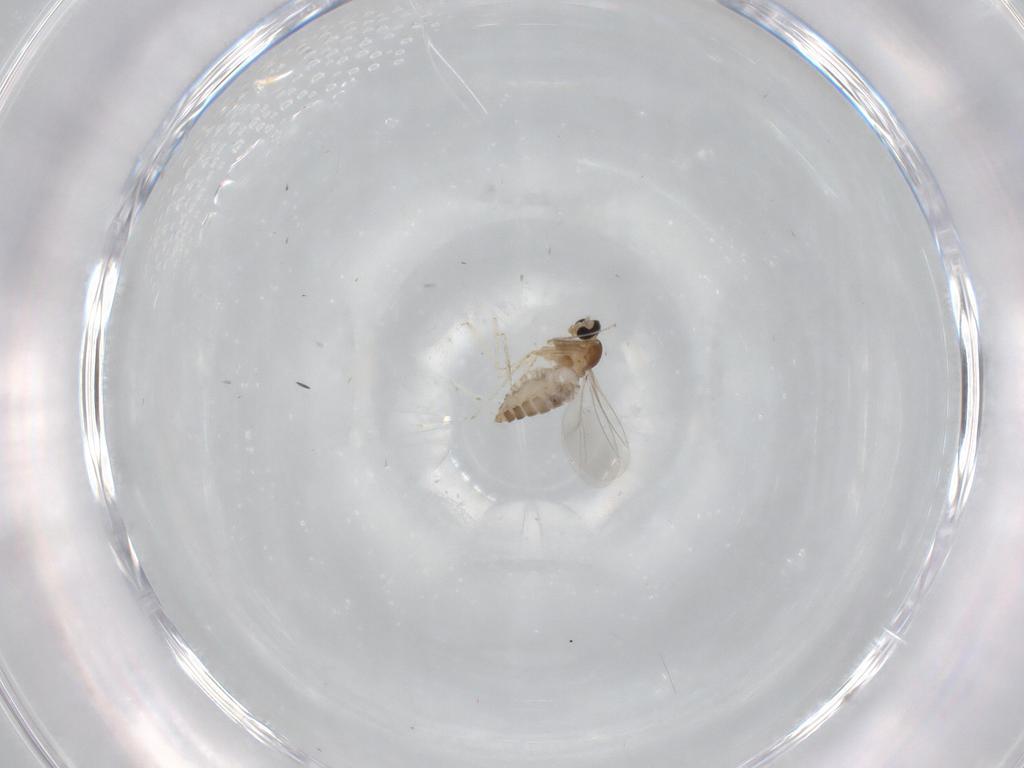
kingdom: Animalia
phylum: Arthropoda
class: Insecta
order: Diptera
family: Cecidomyiidae
